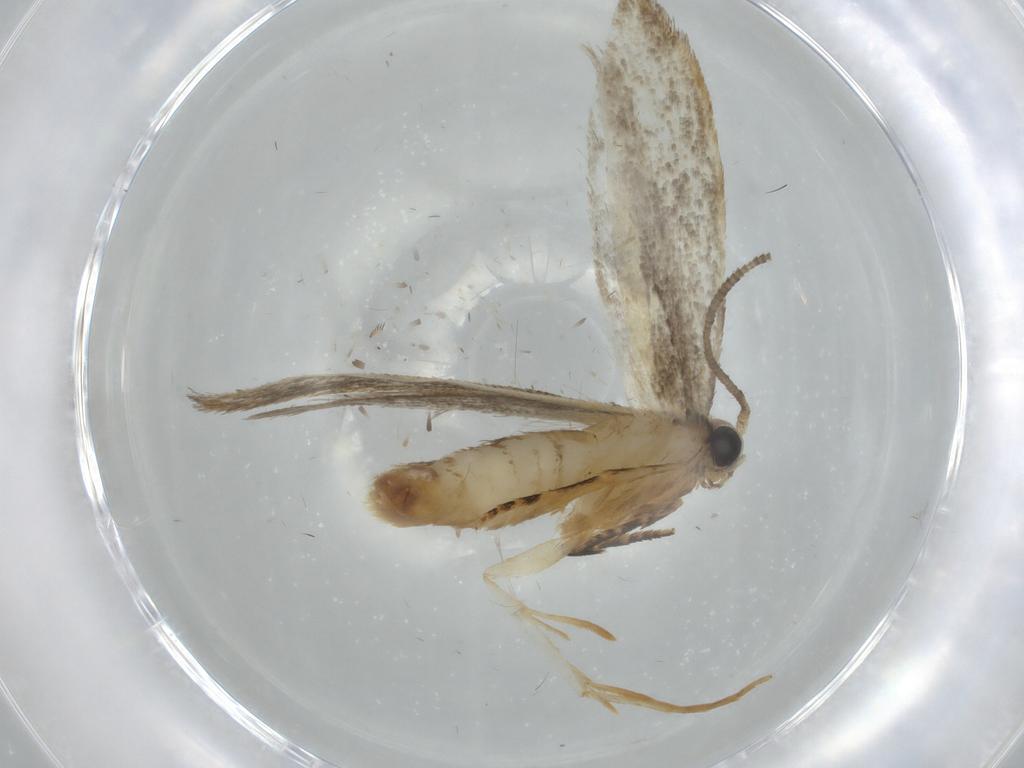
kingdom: Animalia
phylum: Arthropoda
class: Insecta
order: Lepidoptera
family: Tineidae
